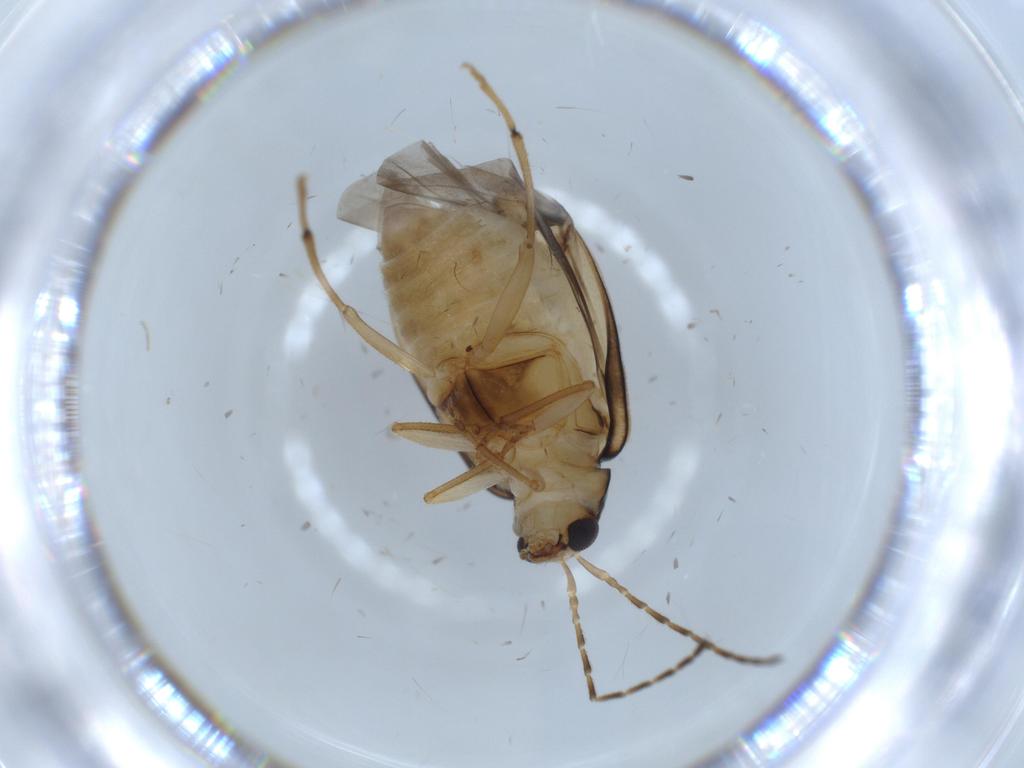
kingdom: Animalia
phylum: Arthropoda
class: Insecta
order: Coleoptera
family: Chrysomelidae
